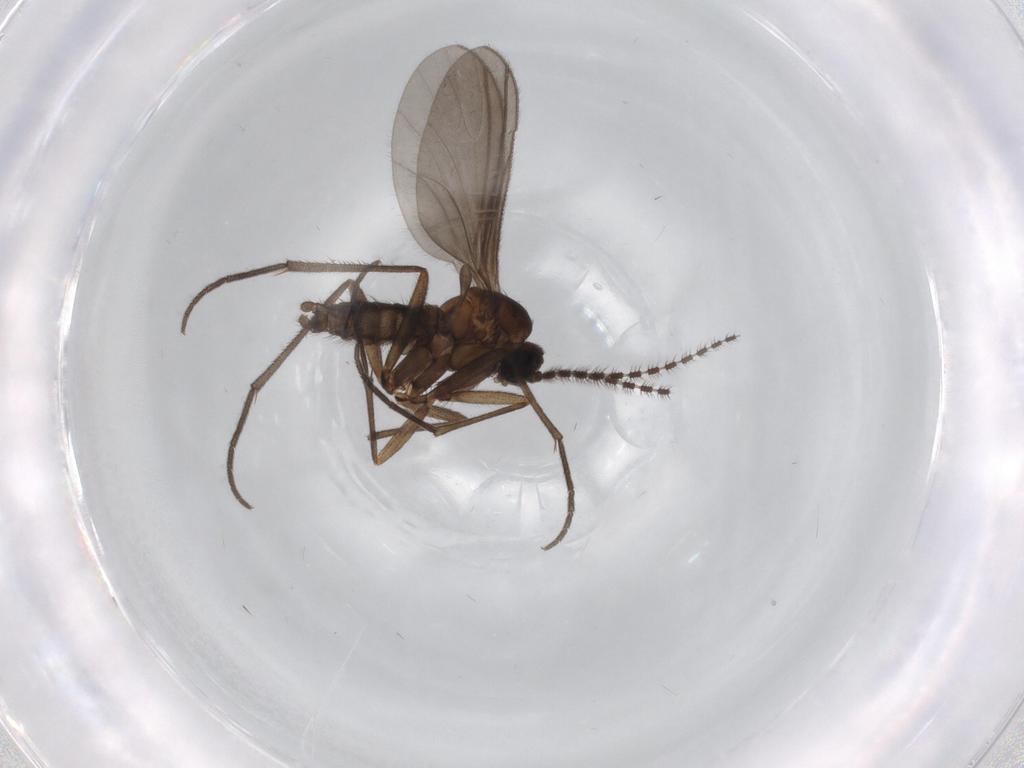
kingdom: Animalia
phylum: Arthropoda
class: Insecta
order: Diptera
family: Sciaridae
